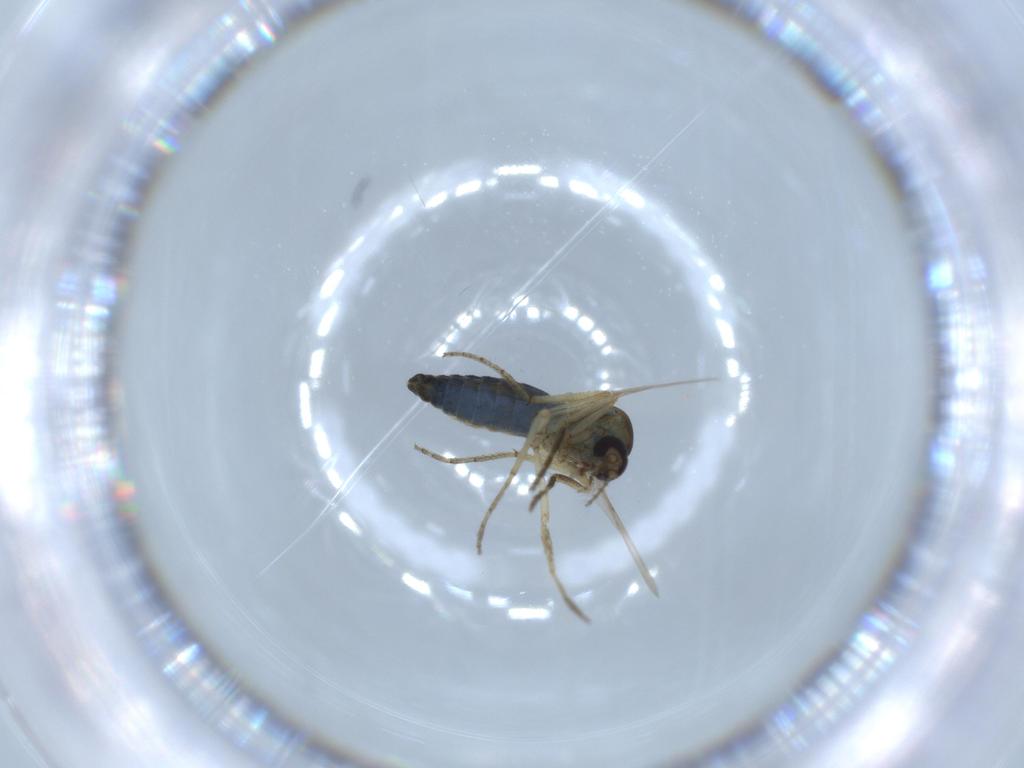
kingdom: Animalia
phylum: Arthropoda
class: Insecta
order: Diptera
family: Ceratopogonidae
